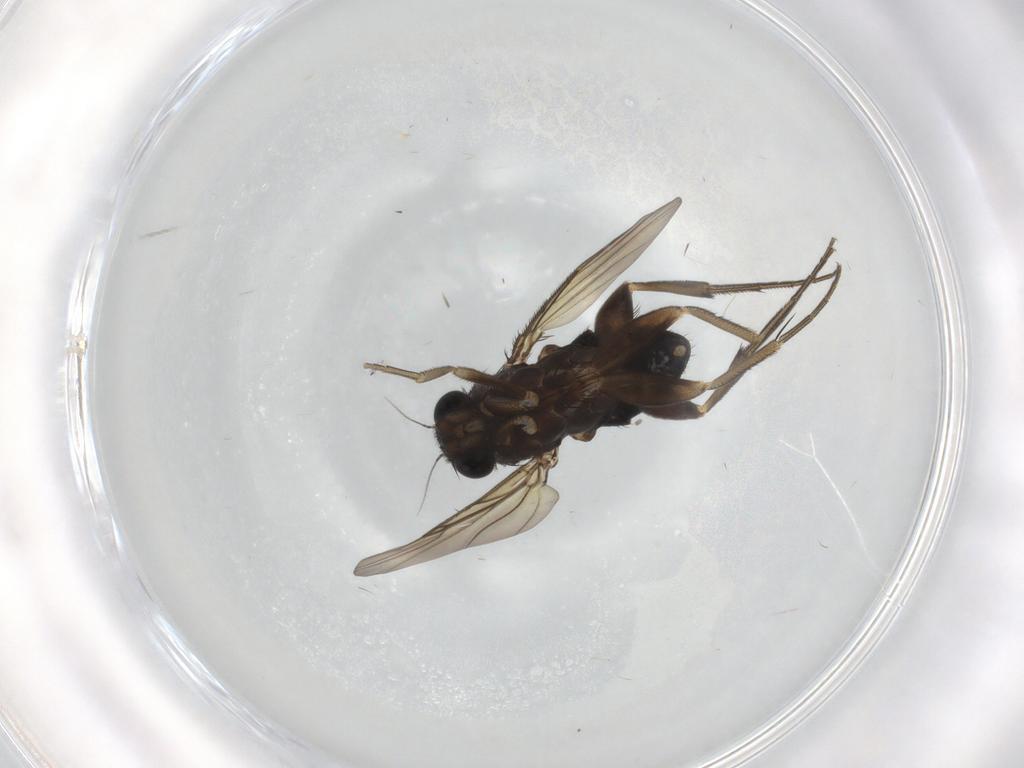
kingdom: Animalia
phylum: Arthropoda
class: Insecta
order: Diptera
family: Phoridae
